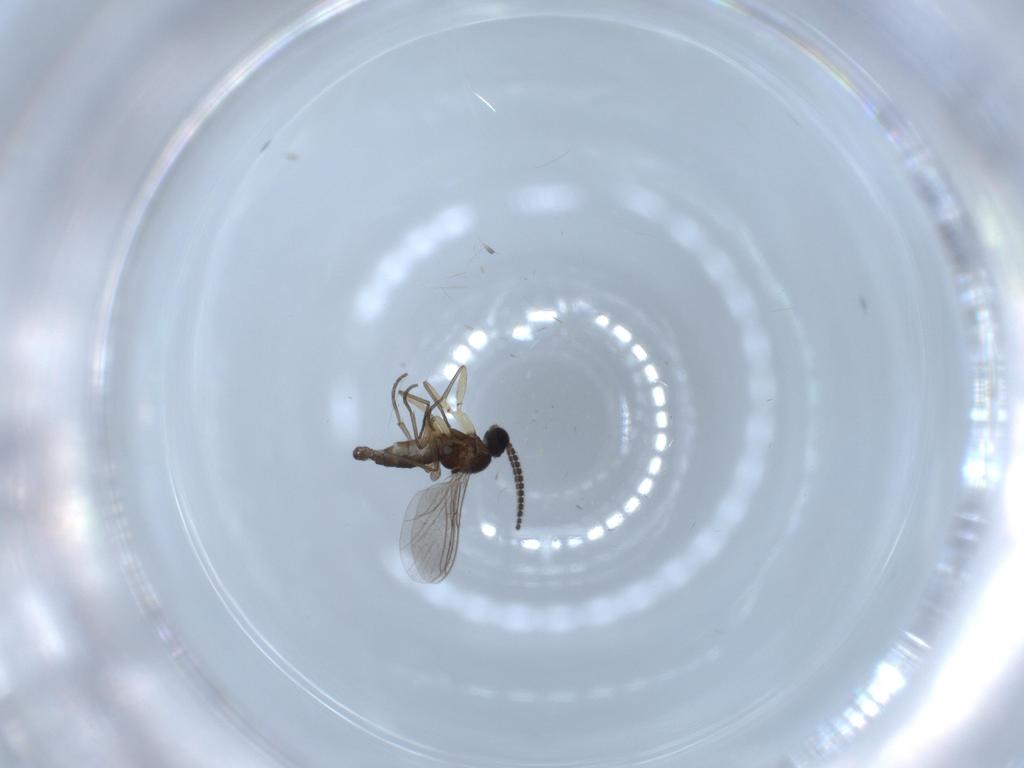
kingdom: Animalia
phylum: Arthropoda
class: Insecta
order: Diptera
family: Sciaridae
